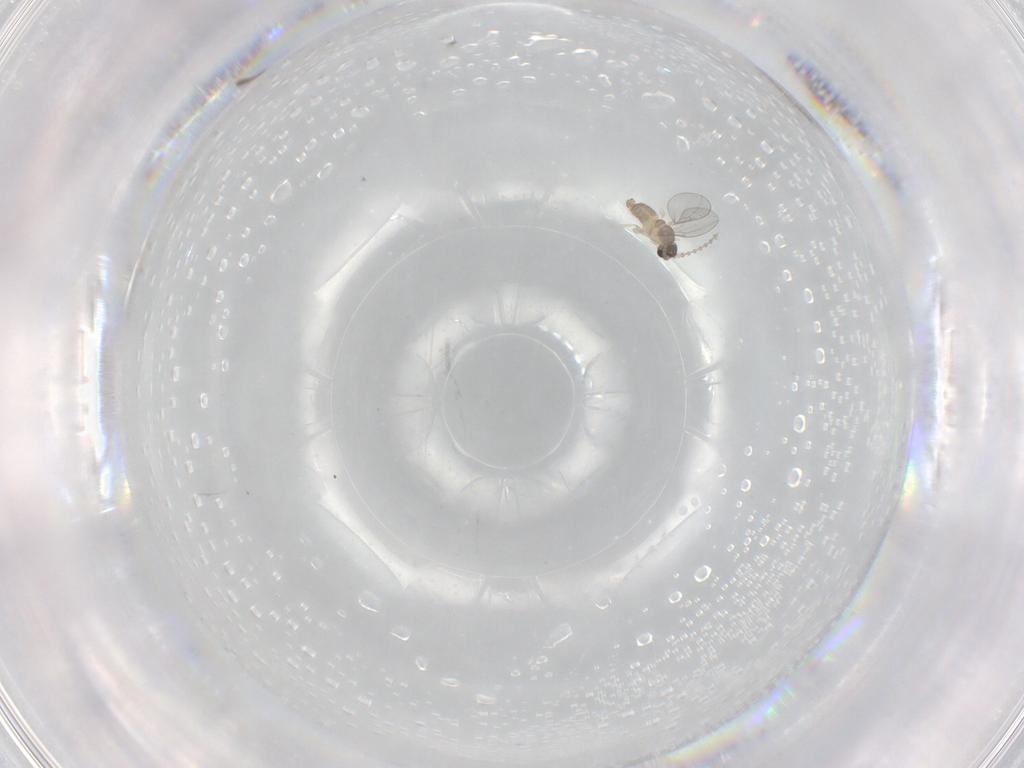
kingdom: Animalia
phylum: Arthropoda
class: Insecta
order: Diptera
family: Cecidomyiidae
